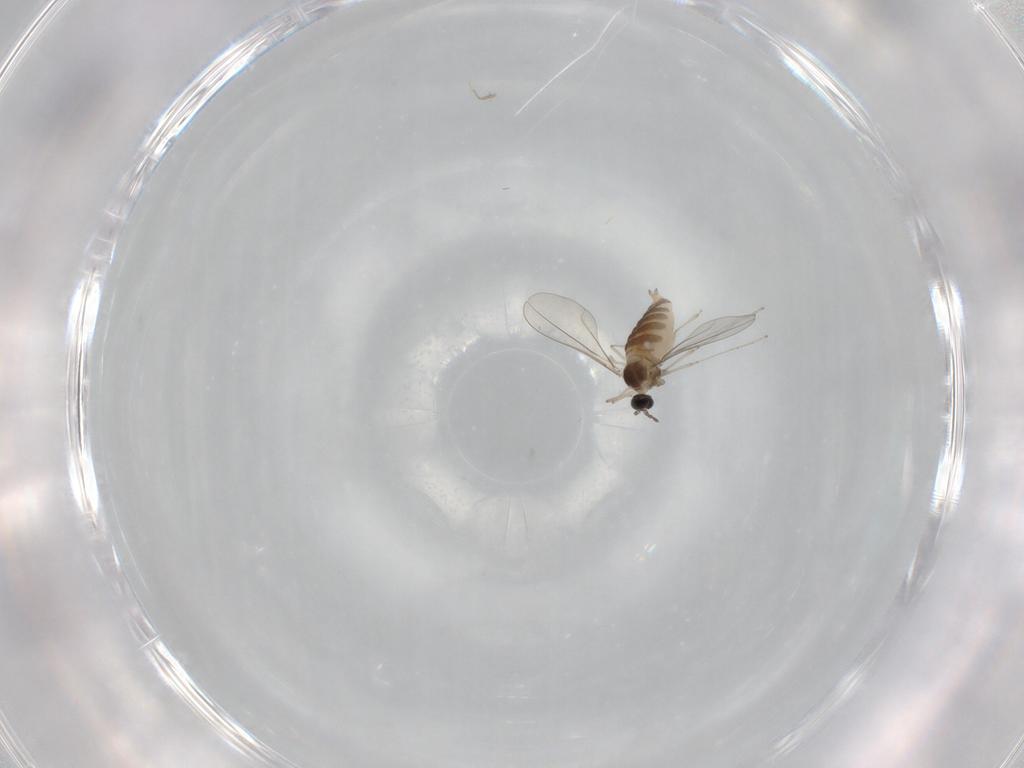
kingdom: Animalia
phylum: Arthropoda
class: Insecta
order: Diptera
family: Cecidomyiidae
